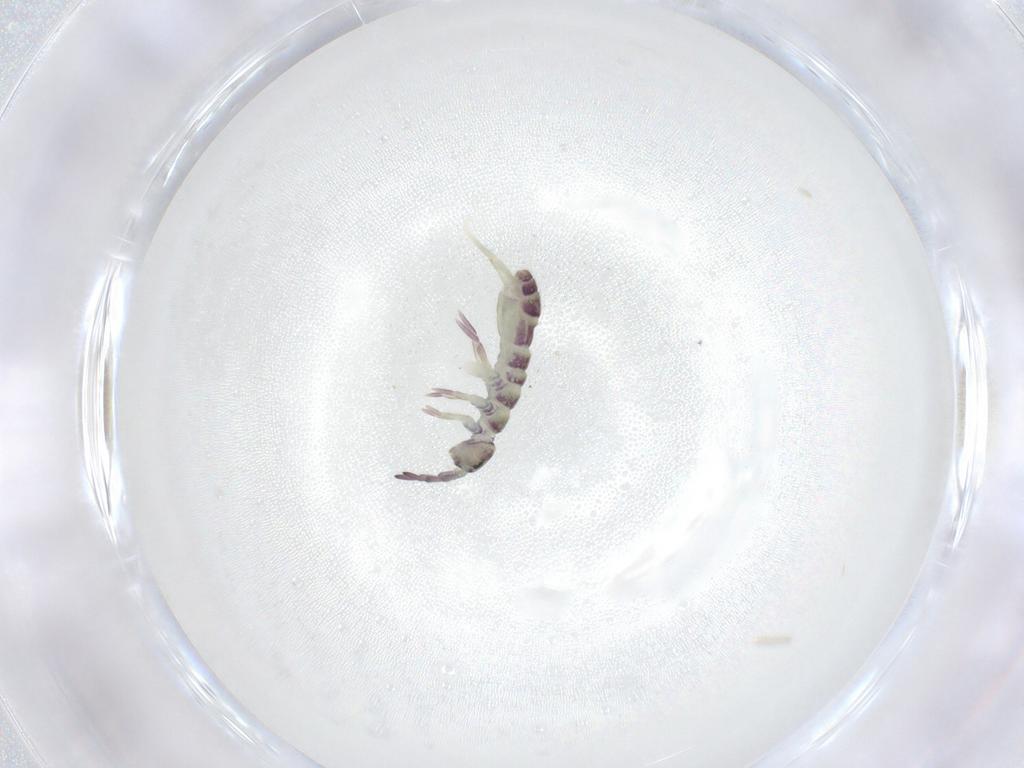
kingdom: Animalia
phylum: Arthropoda
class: Collembola
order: Entomobryomorpha
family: Isotomidae
